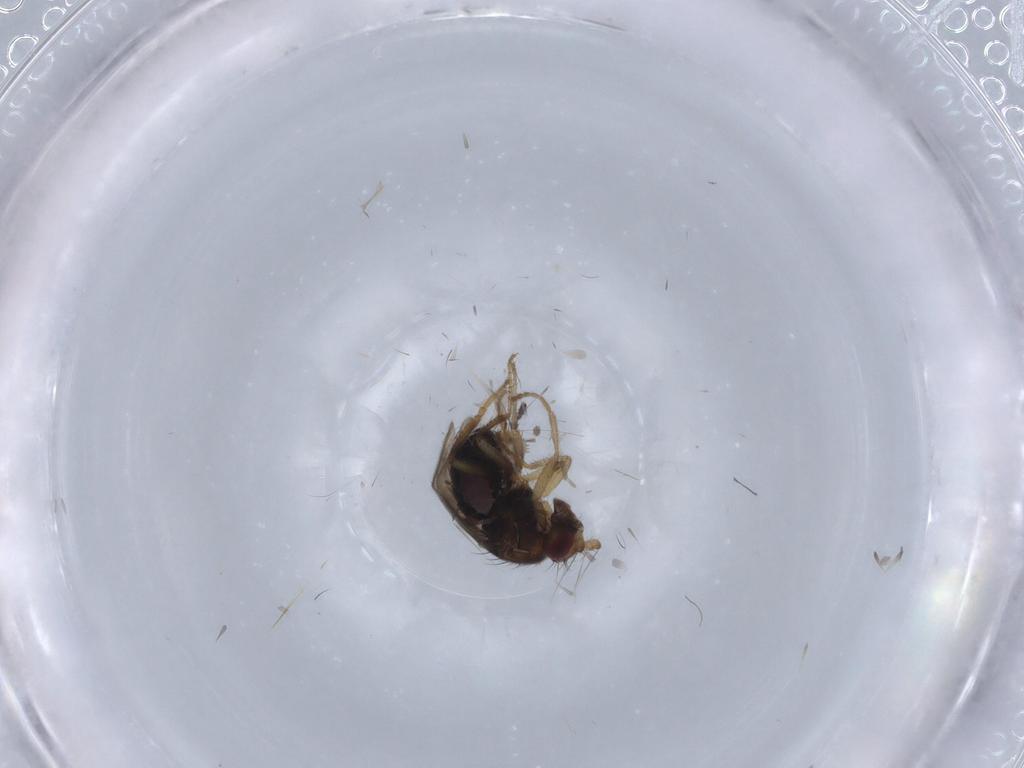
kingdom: Animalia
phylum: Arthropoda
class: Insecta
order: Diptera
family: Agromyzidae
